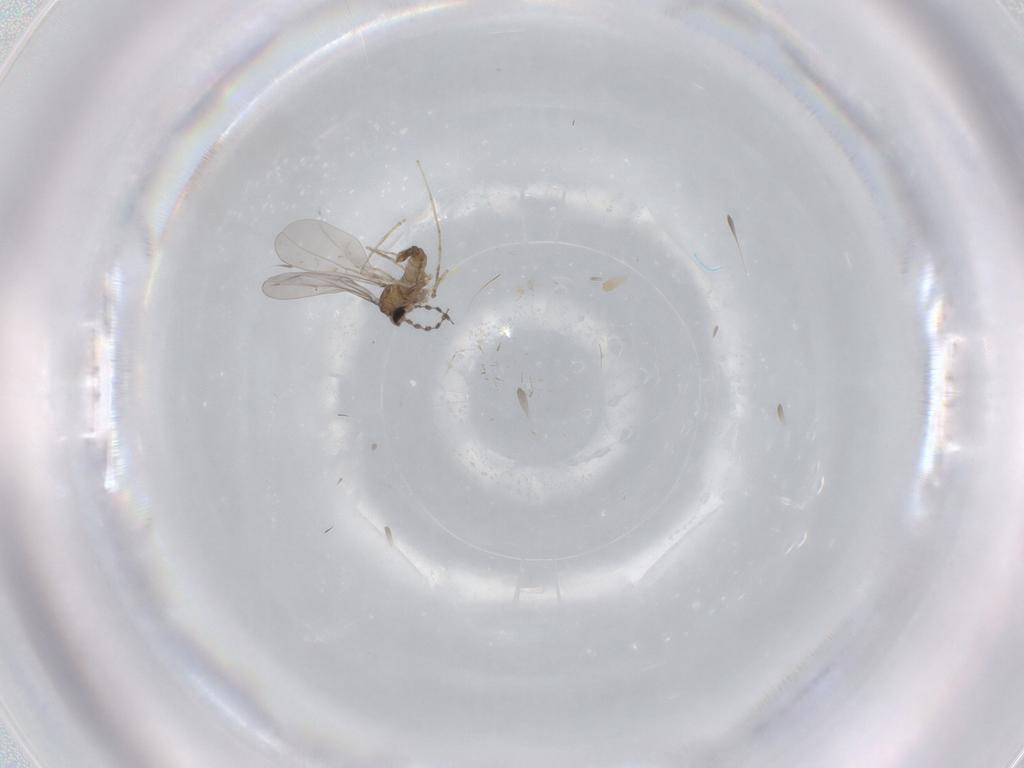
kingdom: Animalia
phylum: Arthropoda
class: Insecta
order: Diptera
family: Cecidomyiidae
